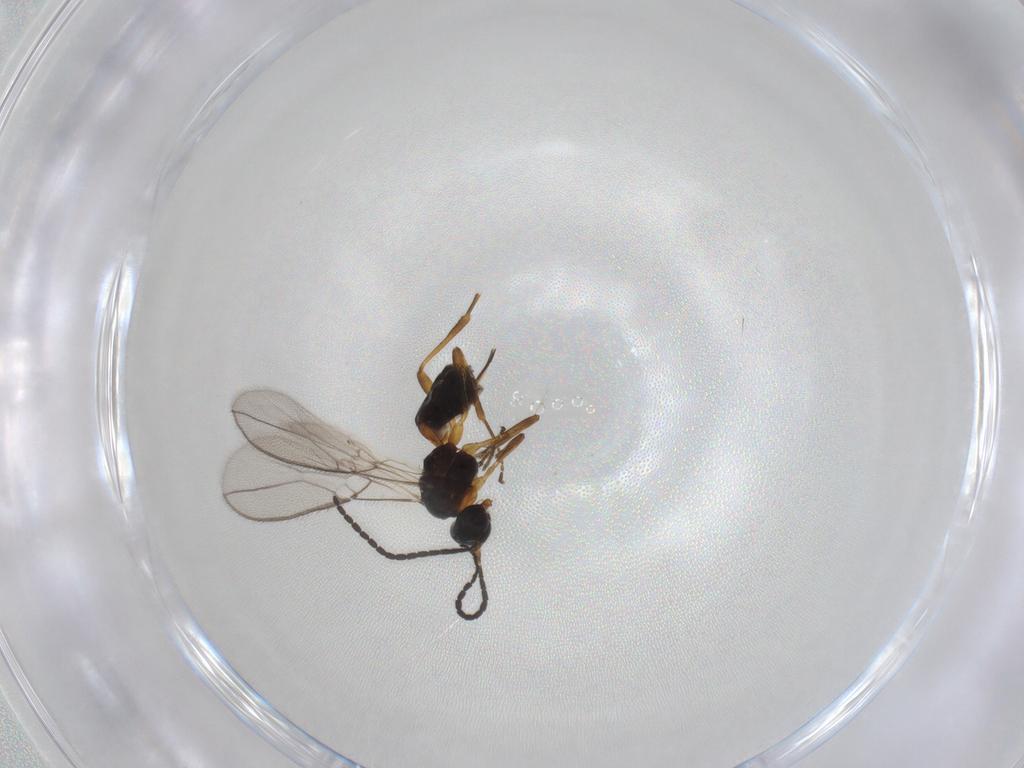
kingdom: Animalia
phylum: Arthropoda
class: Insecta
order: Hymenoptera
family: Braconidae
